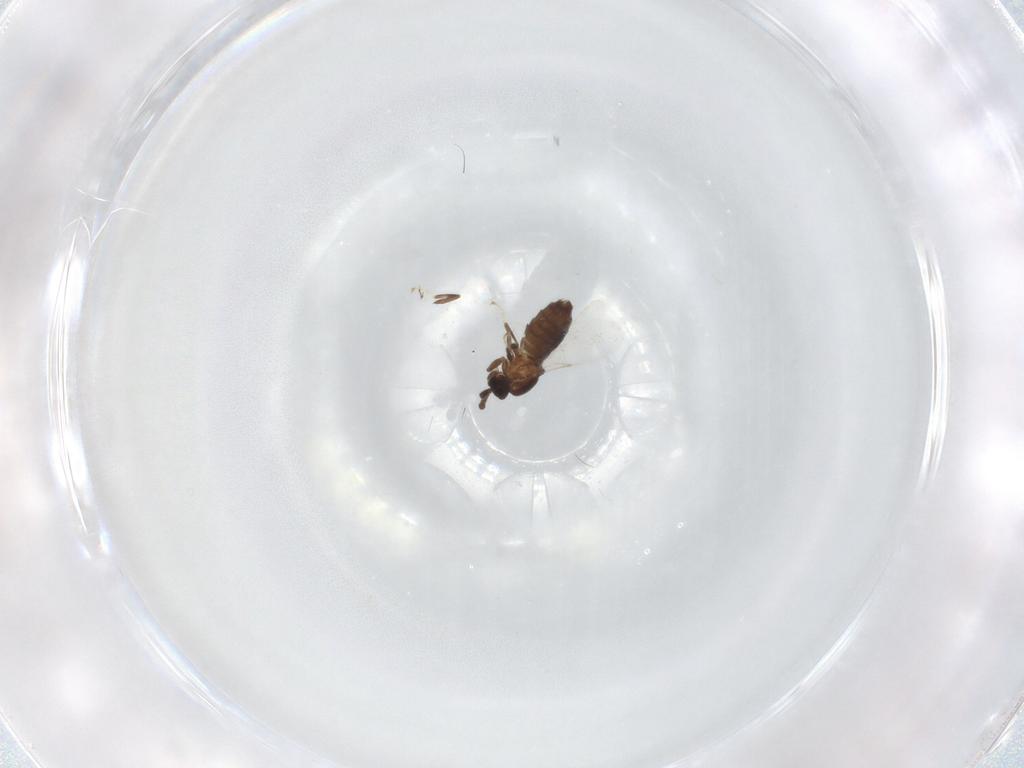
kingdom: Animalia
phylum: Arthropoda
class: Insecta
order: Diptera
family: Scatopsidae
